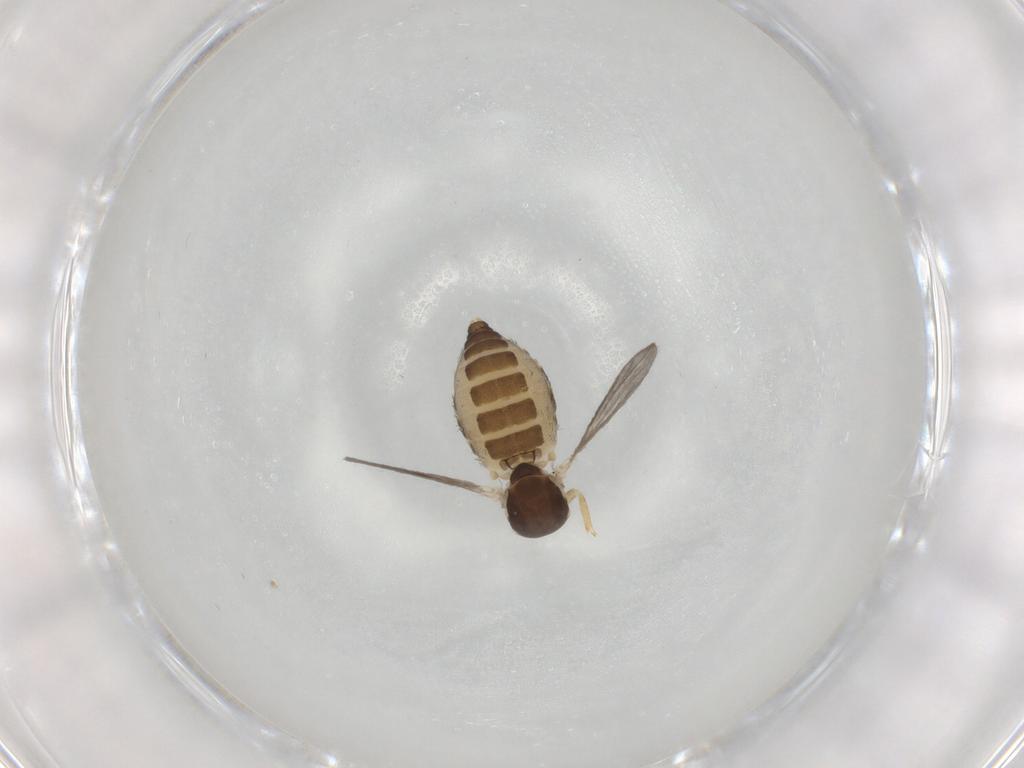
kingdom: Animalia
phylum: Arthropoda
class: Insecta
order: Diptera
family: Ceratopogonidae
